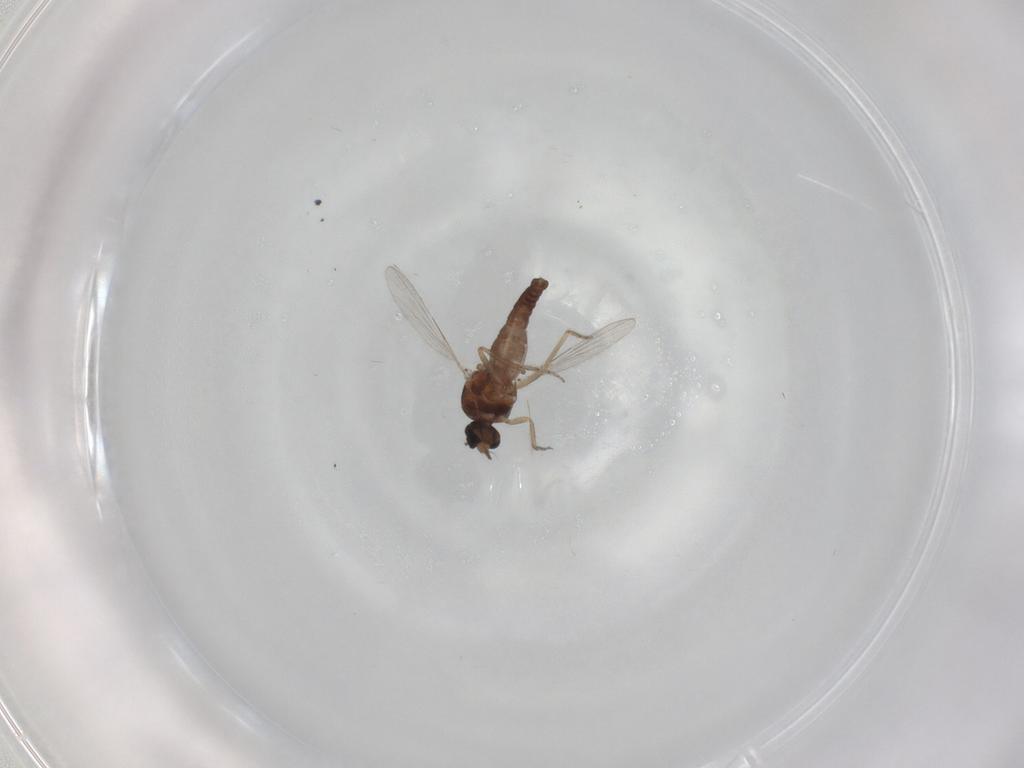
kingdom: Animalia
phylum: Arthropoda
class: Insecta
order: Diptera
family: Ceratopogonidae
